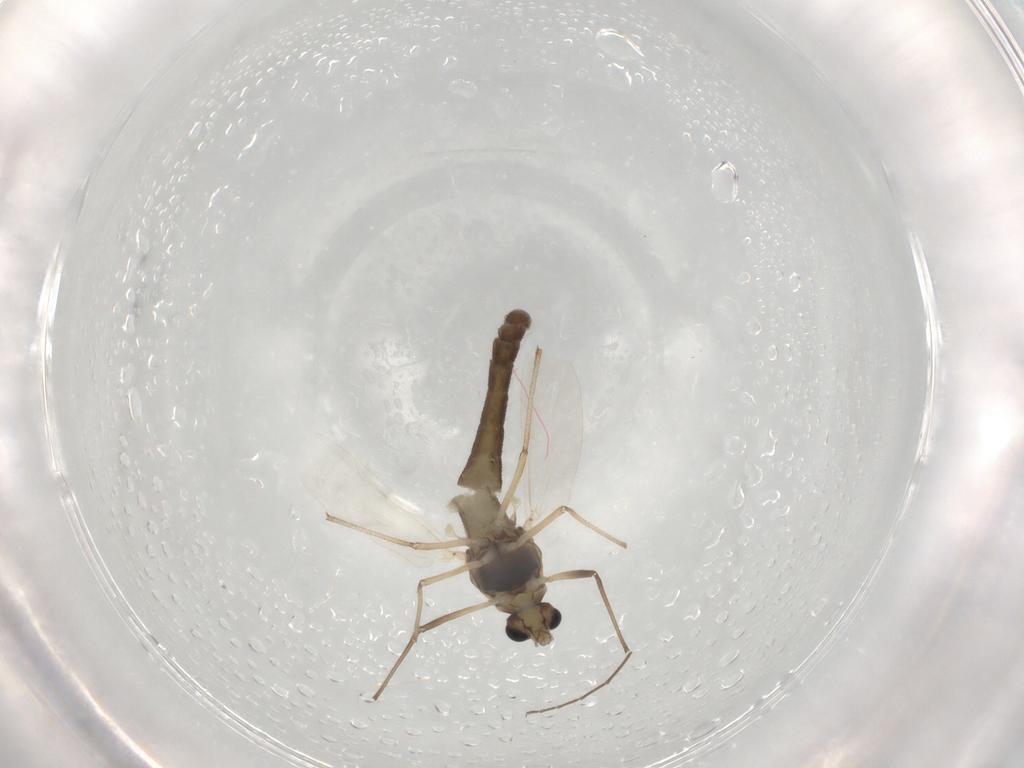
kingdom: Animalia
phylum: Arthropoda
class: Insecta
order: Diptera
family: Chironomidae
